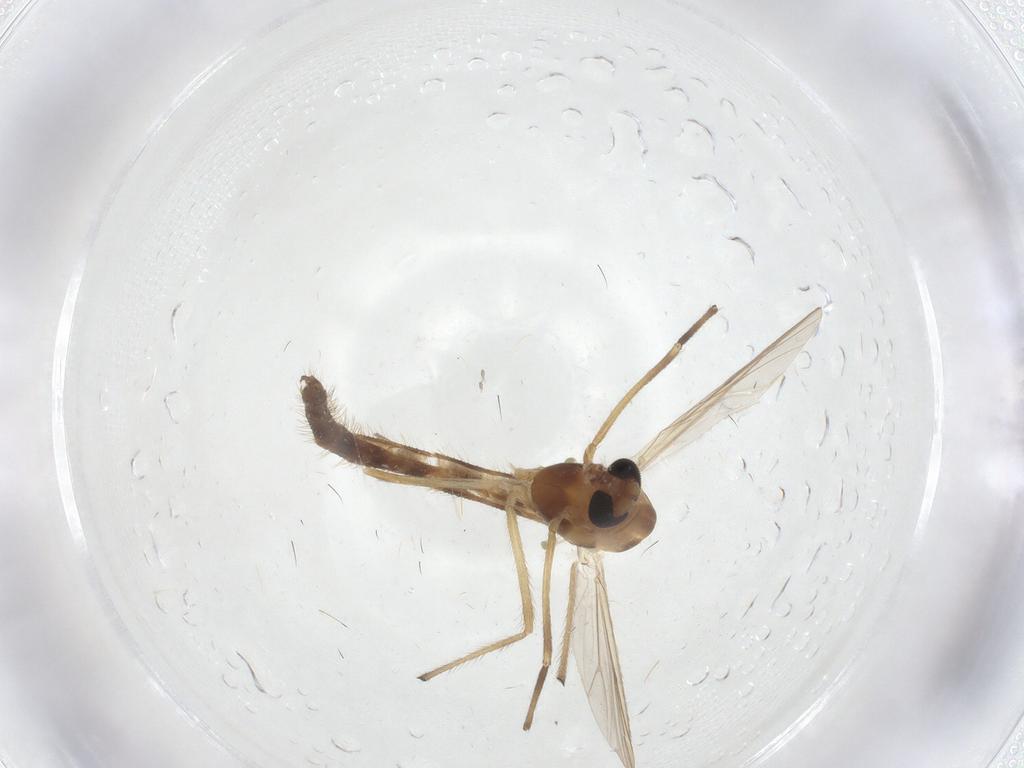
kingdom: Animalia
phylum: Arthropoda
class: Insecta
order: Diptera
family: Chironomidae
